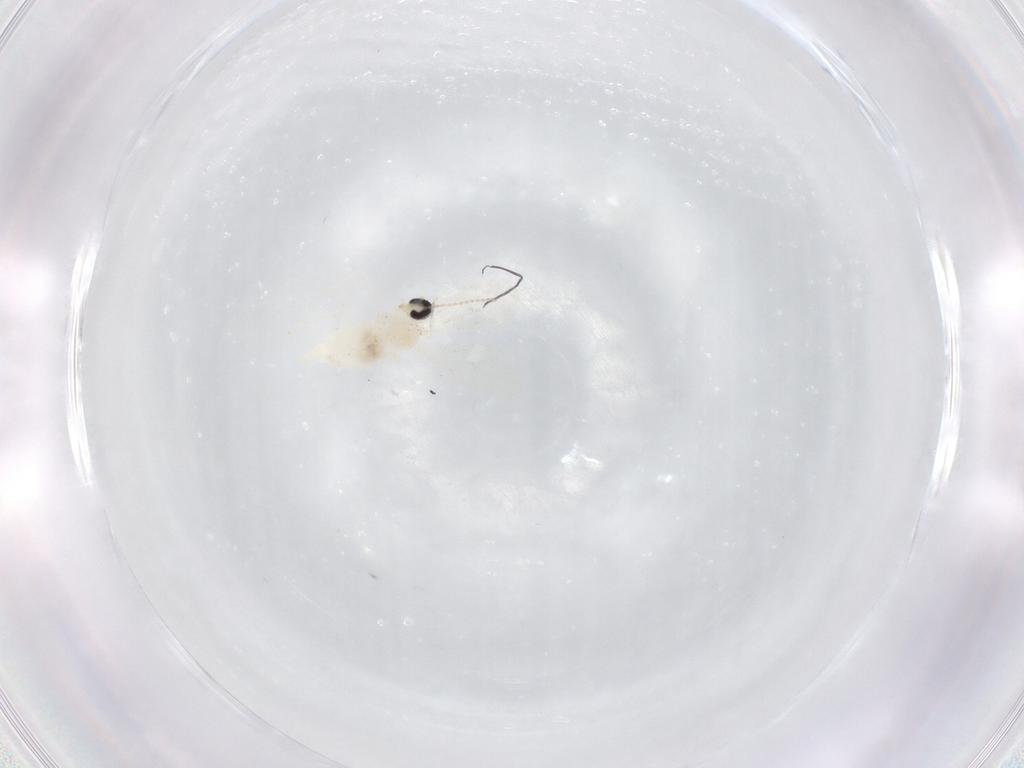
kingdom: Animalia
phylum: Arthropoda
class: Insecta
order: Diptera
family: Cecidomyiidae
